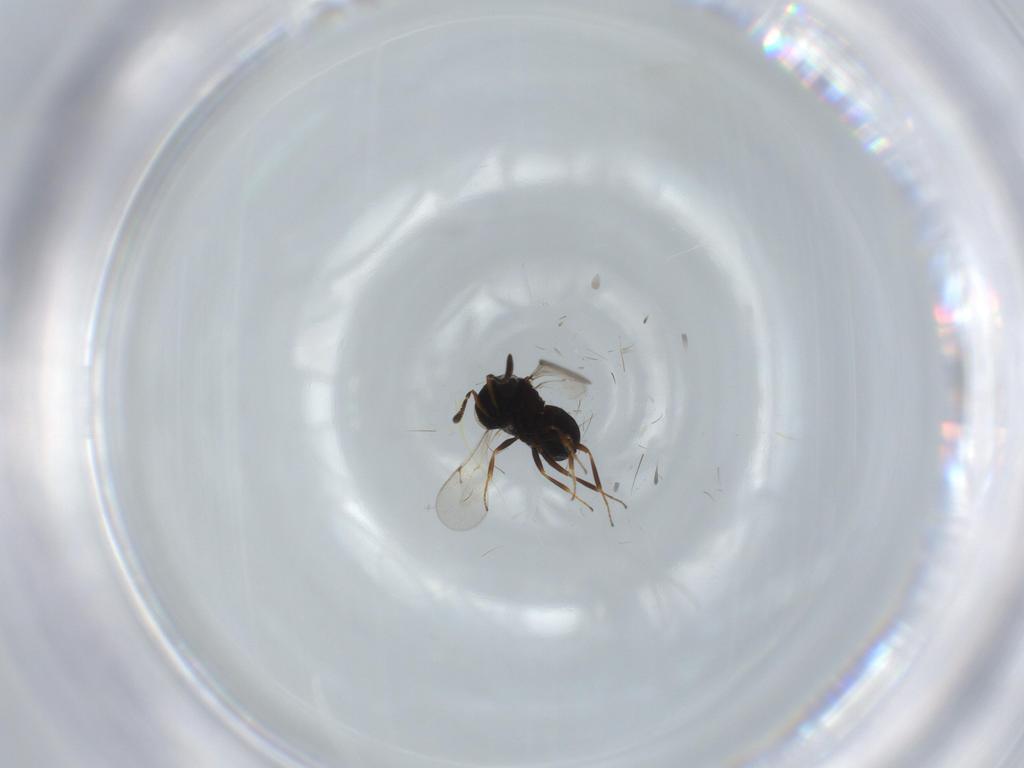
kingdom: Animalia
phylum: Arthropoda
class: Insecta
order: Hymenoptera
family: Scelionidae
